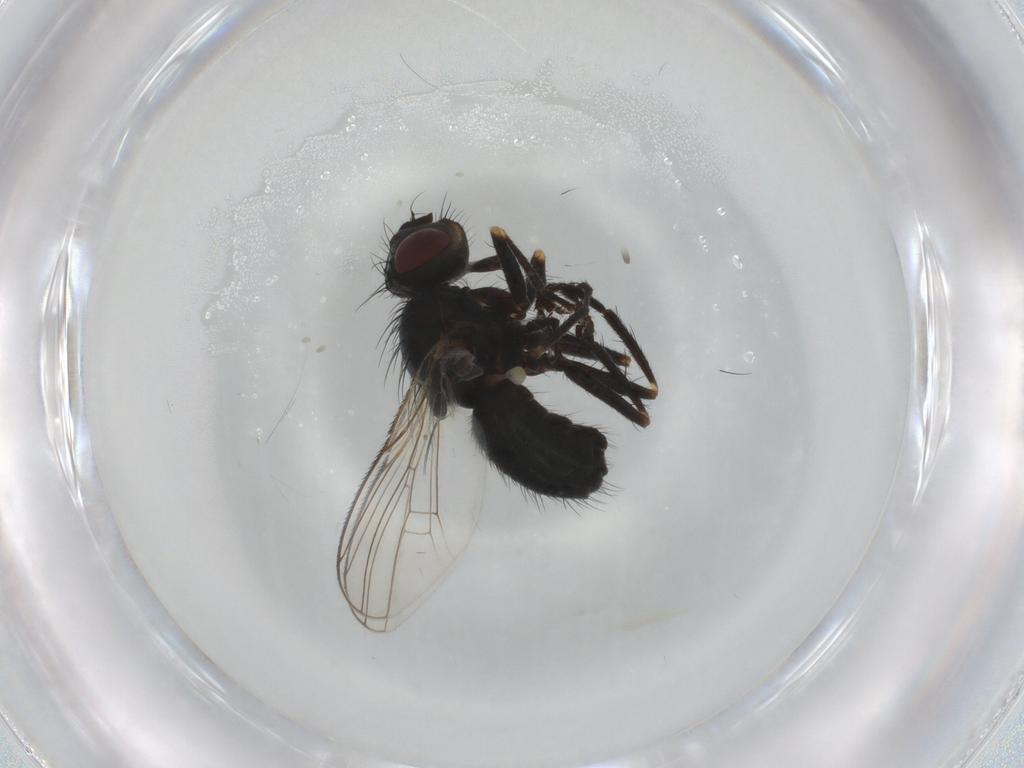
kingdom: Animalia
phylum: Arthropoda
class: Insecta
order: Diptera
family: Muscidae
